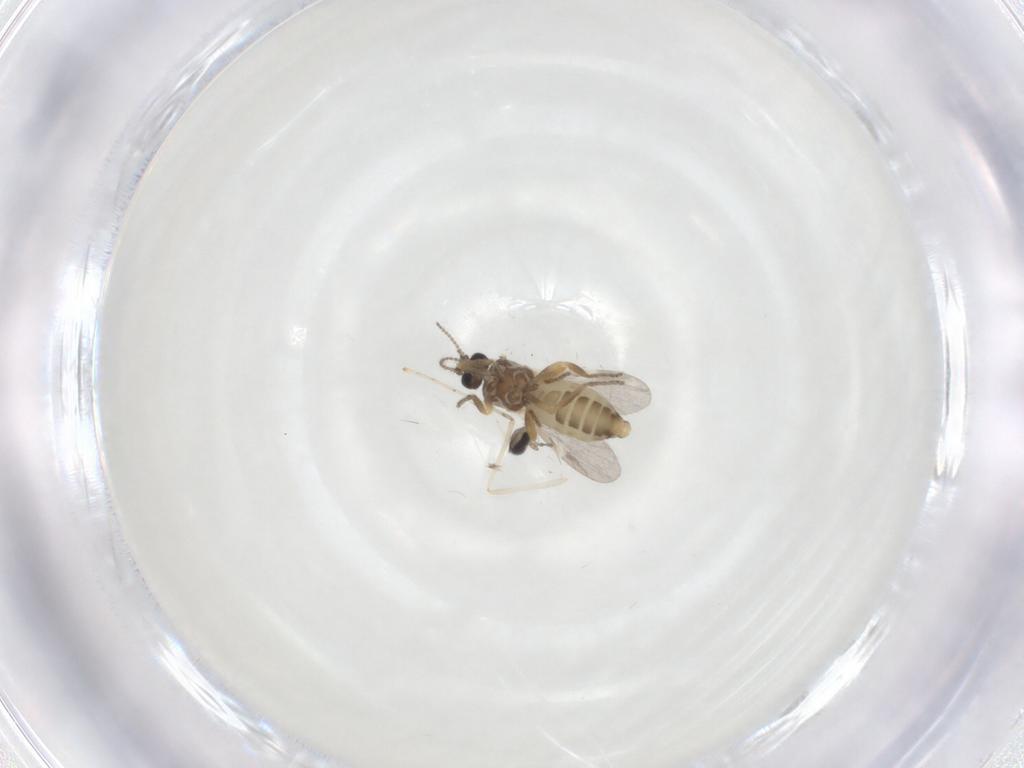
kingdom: Animalia
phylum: Arthropoda
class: Insecta
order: Diptera
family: Ceratopogonidae
